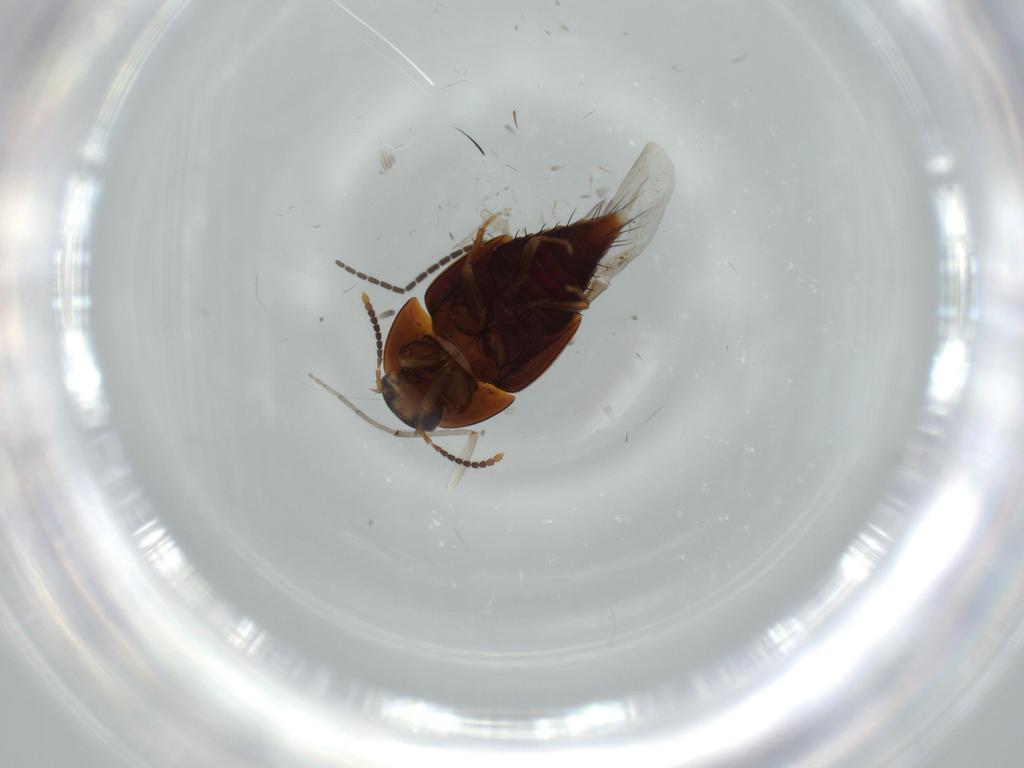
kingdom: Animalia
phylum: Arthropoda
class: Insecta
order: Coleoptera
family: Staphylinidae
